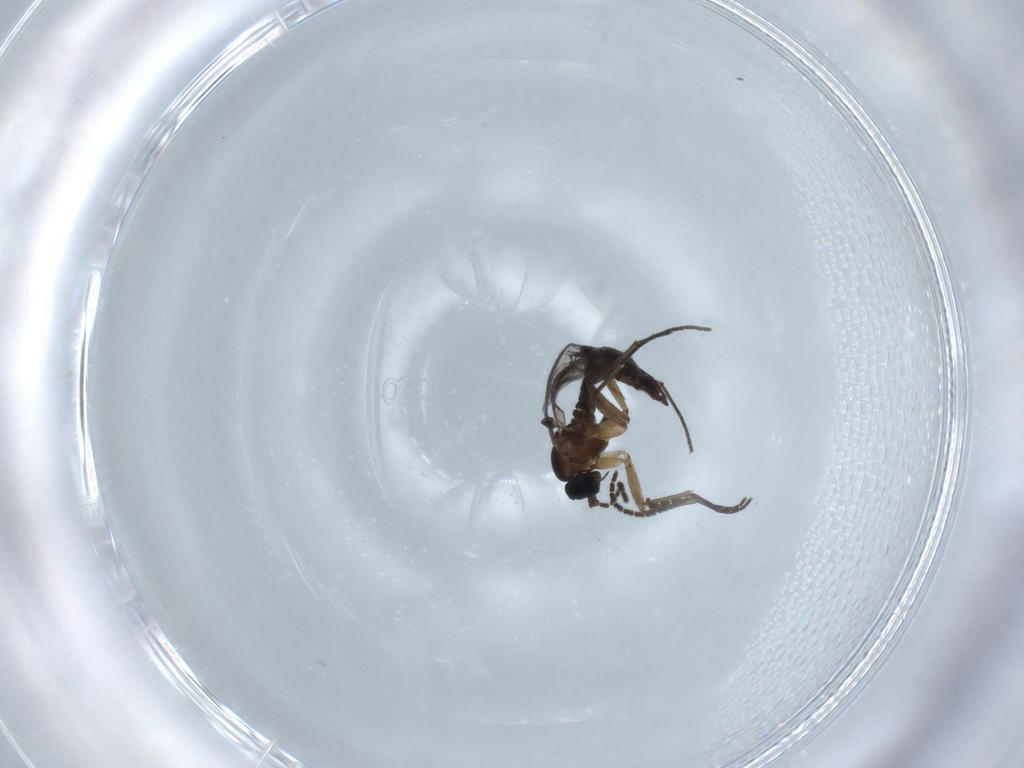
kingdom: Animalia
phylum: Arthropoda
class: Insecta
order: Diptera
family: Sciaridae
